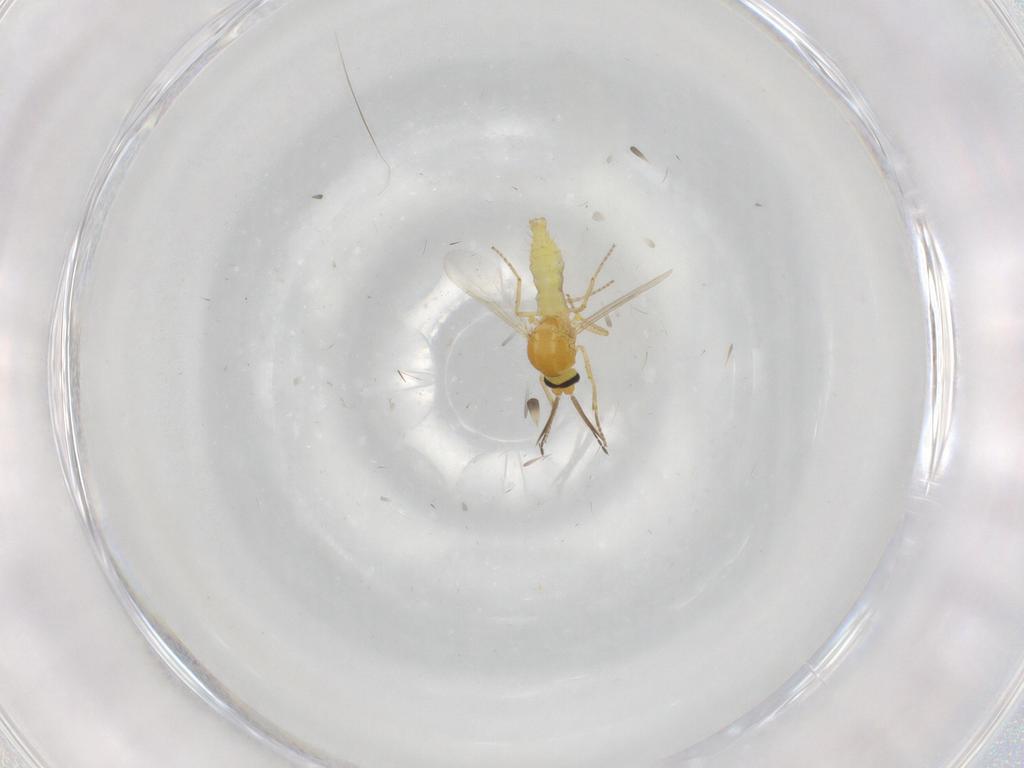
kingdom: Animalia
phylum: Arthropoda
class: Insecta
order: Diptera
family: Ceratopogonidae
